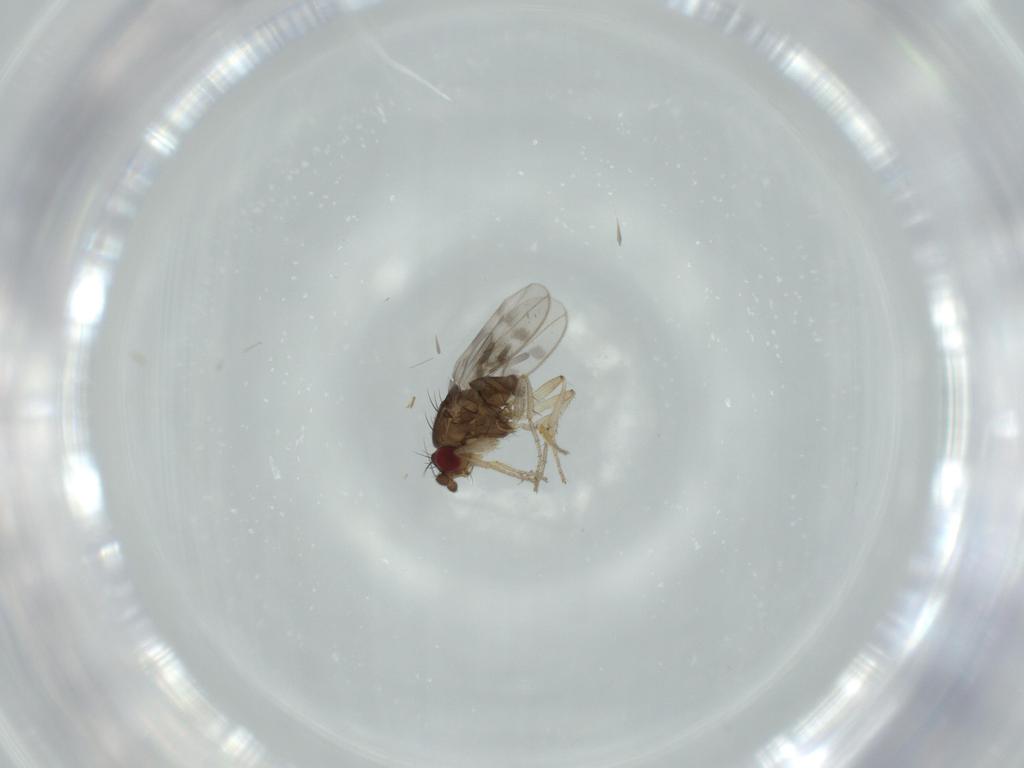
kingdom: Animalia
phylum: Arthropoda
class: Insecta
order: Diptera
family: Sphaeroceridae
